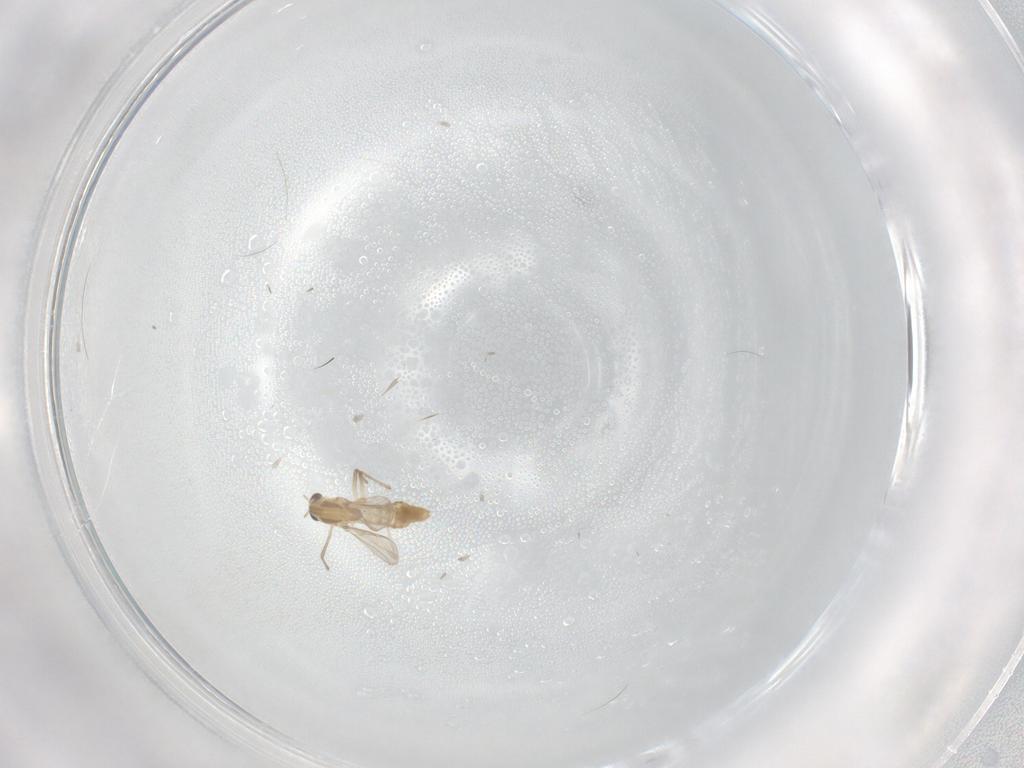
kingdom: Animalia
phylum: Arthropoda
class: Insecta
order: Diptera
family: Chironomidae
